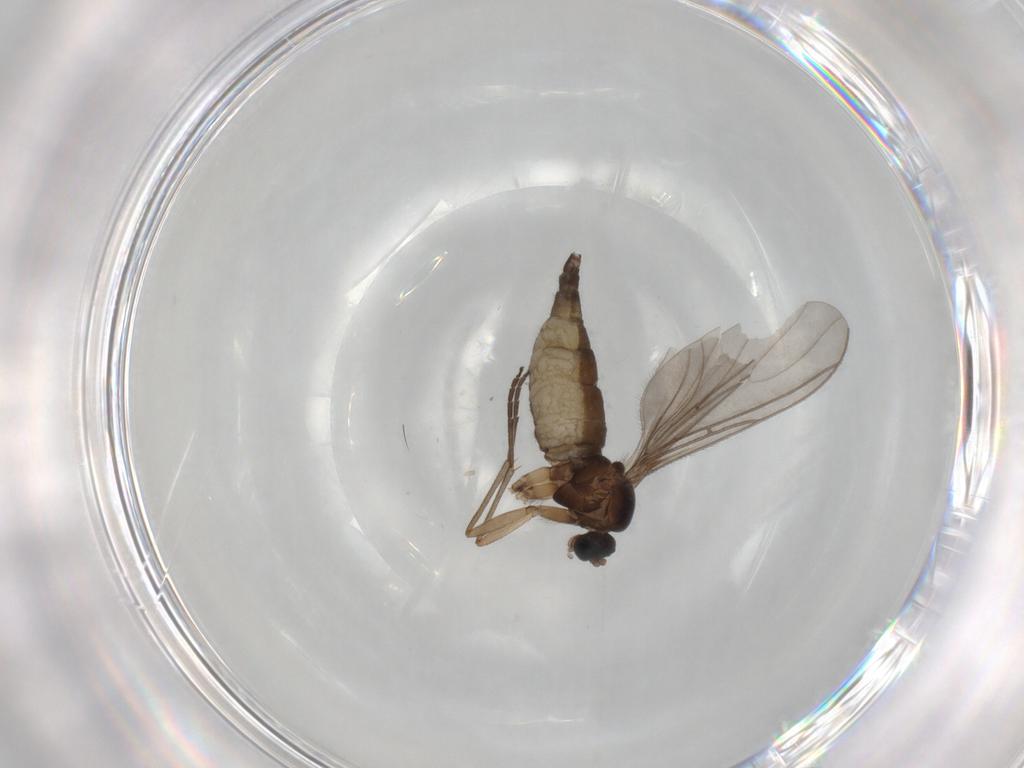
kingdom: Animalia
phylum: Arthropoda
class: Insecta
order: Diptera
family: Sciaridae
